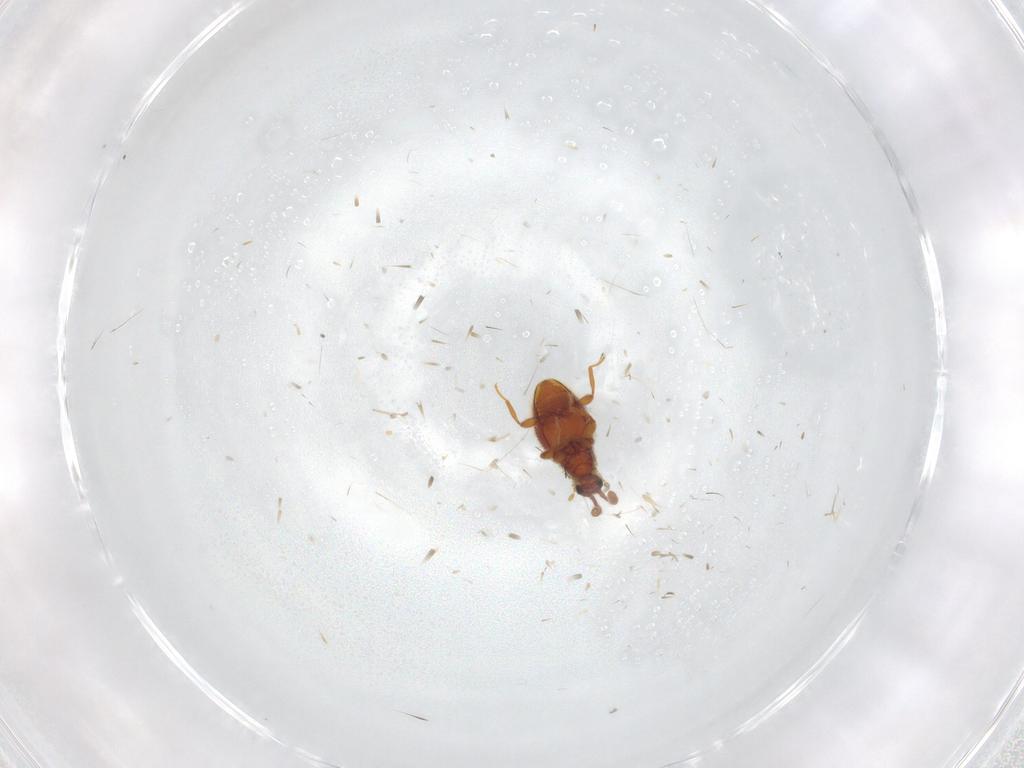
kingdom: Animalia
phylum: Arthropoda
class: Insecta
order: Coleoptera
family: Ptilodactylidae
